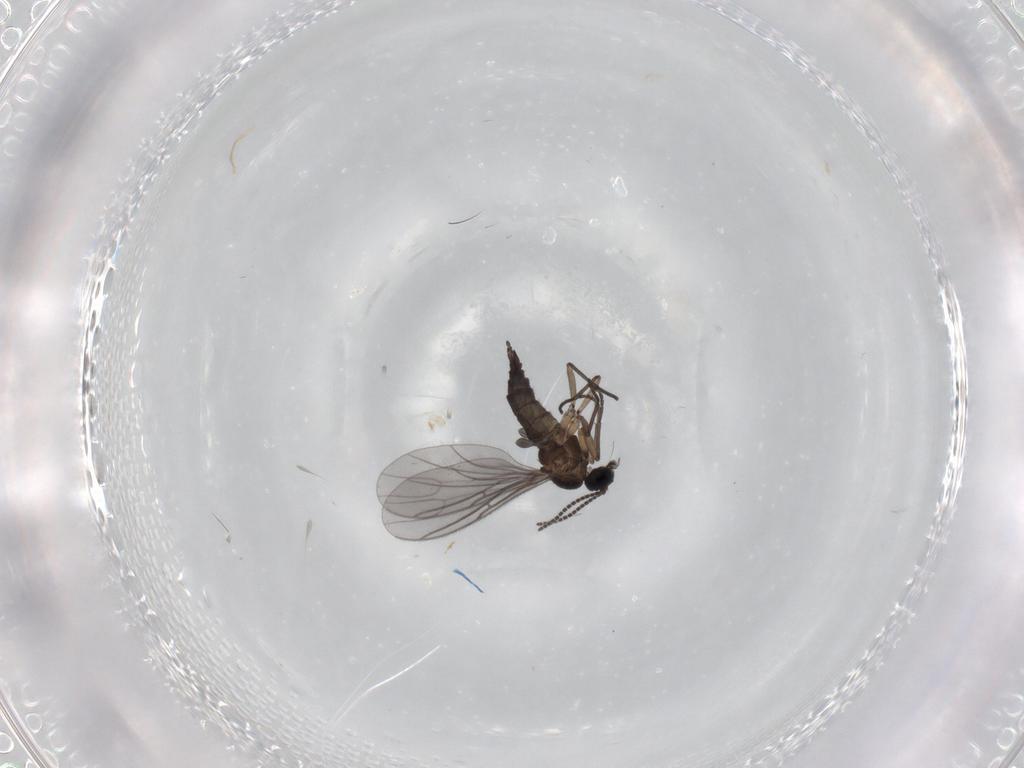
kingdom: Animalia
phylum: Arthropoda
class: Insecta
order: Diptera
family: Sciaridae
